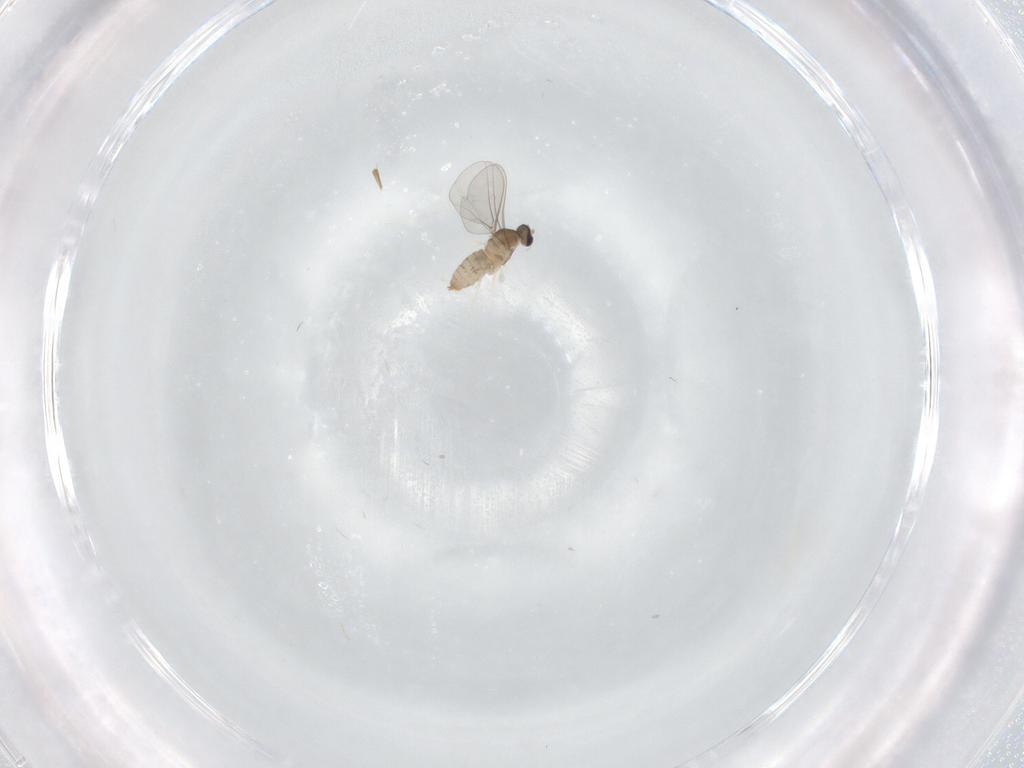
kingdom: Animalia
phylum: Arthropoda
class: Insecta
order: Diptera
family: Cecidomyiidae
